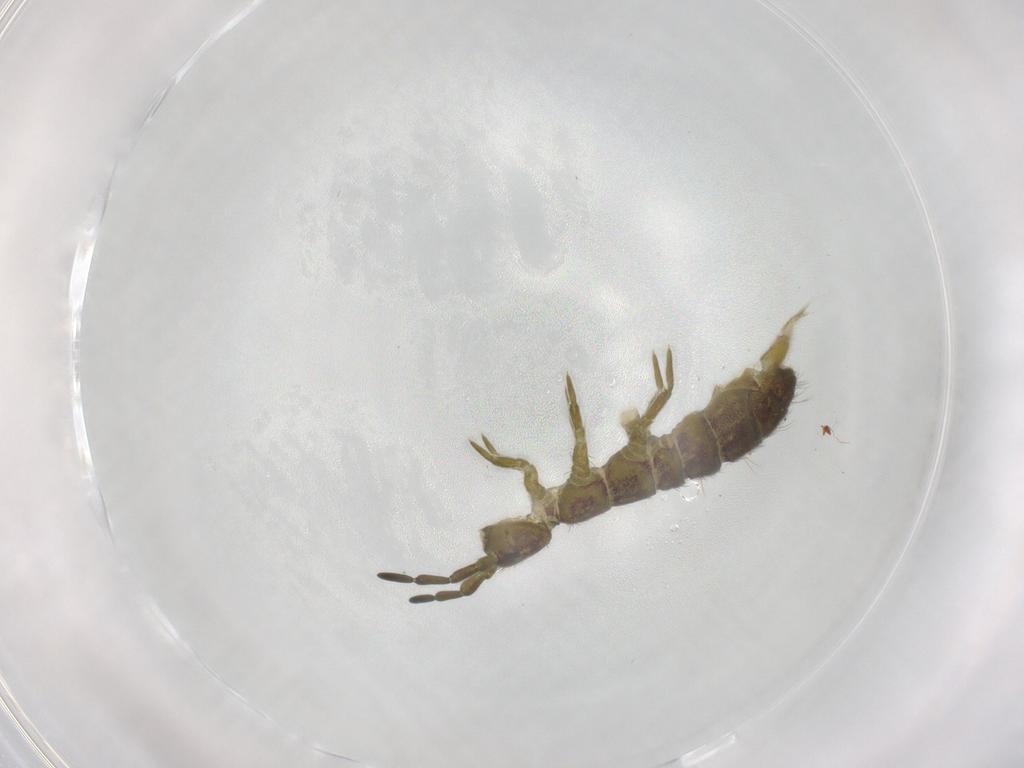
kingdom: Animalia
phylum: Arthropoda
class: Collembola
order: Entomobryomorpha
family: Isotomidae
